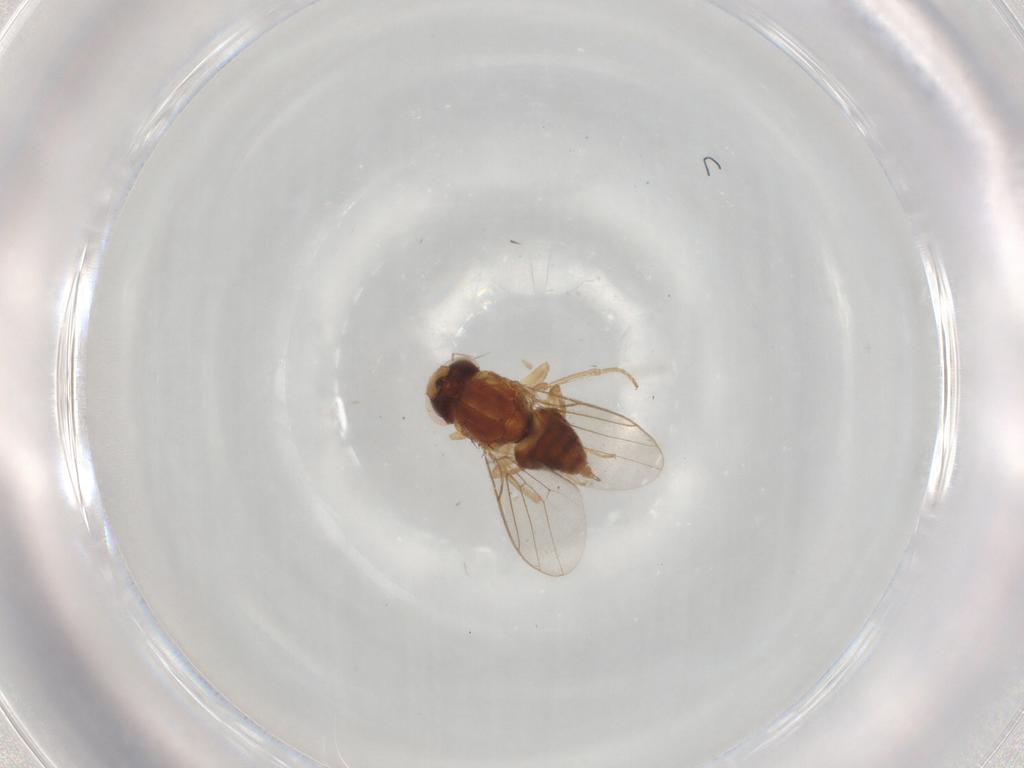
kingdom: Animalia
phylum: Arthropoda
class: Insecta
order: Diptera
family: Chloropidae
